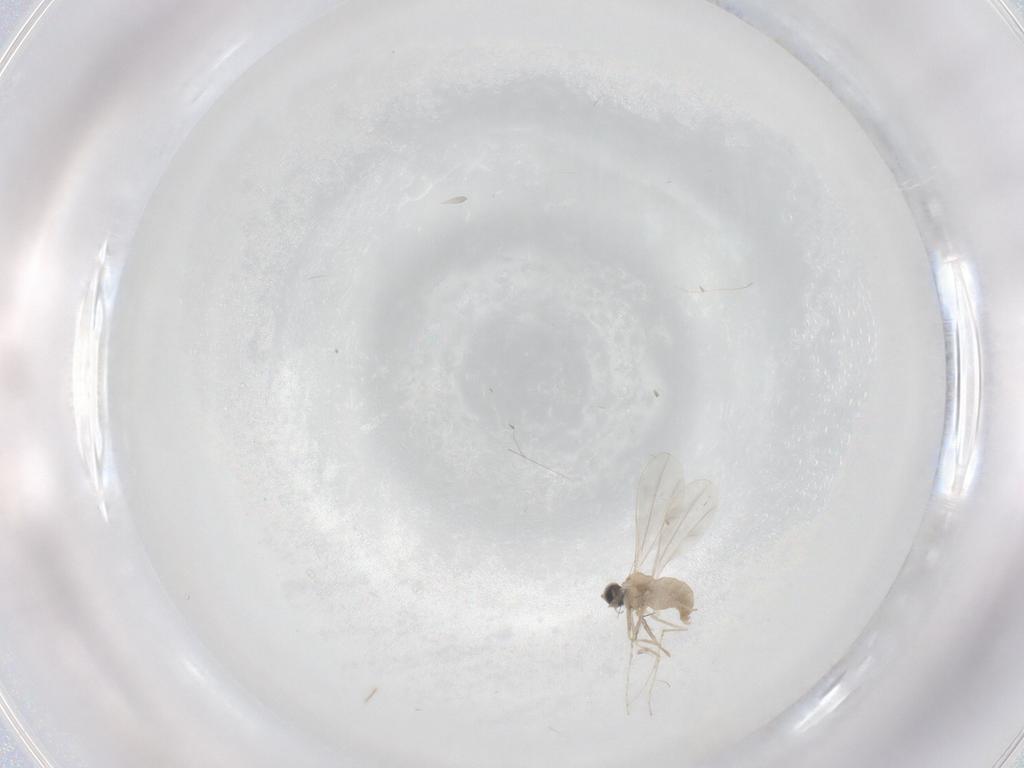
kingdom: Animalia
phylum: Arthropoda
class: Insecta
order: Diptera
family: Cecidomyiidae
